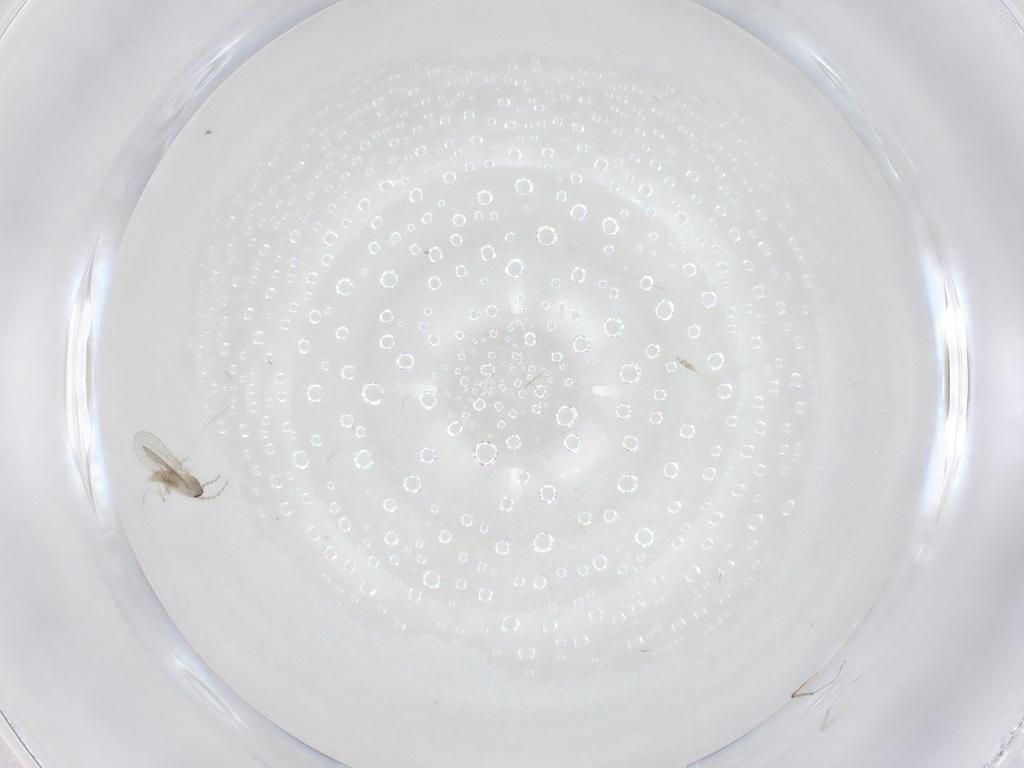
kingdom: Animalia
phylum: Arthropoda
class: Insecta
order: Diptera
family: Ceratopogonidae
